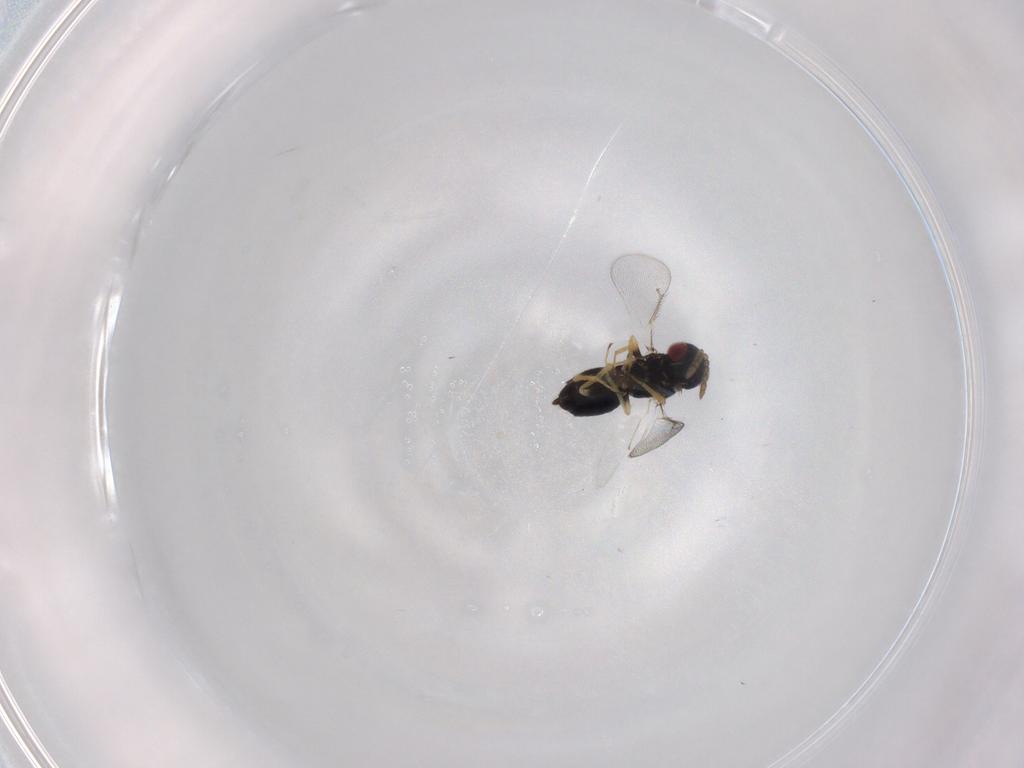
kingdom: Animalia
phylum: Arthropoda
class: Insecta
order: Hymenoptera
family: Eulophidae
